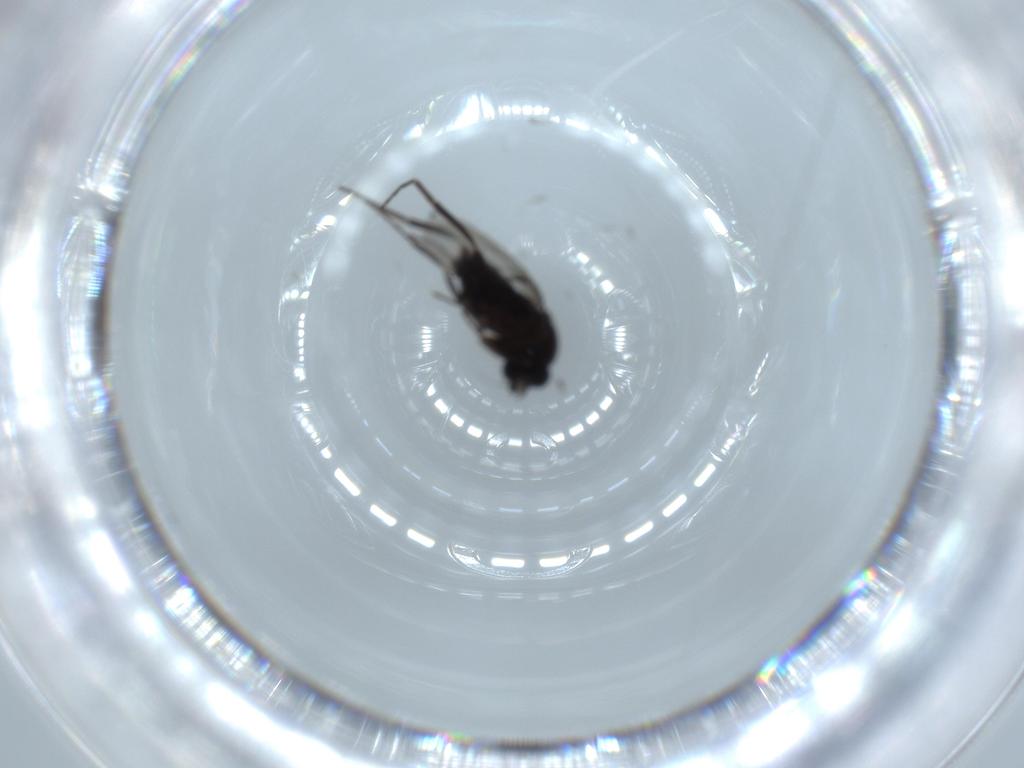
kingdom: Animalia
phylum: Arthropoda
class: Insecta
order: Diptera
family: Phoridae
